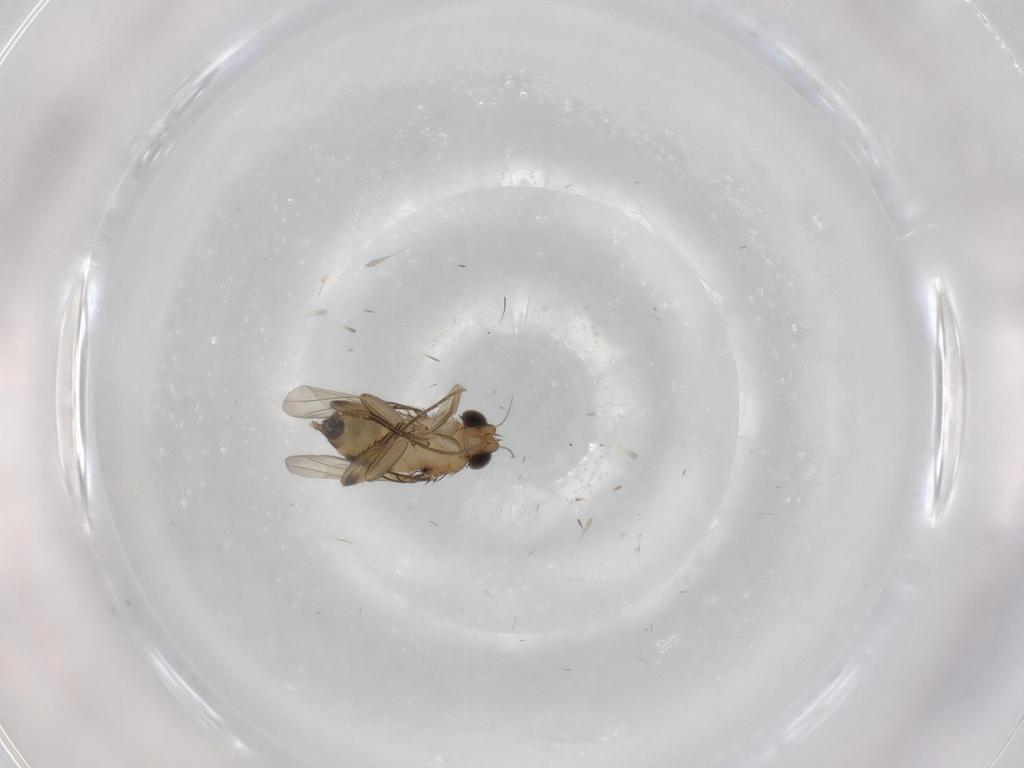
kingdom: Animalia
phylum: Arthropoda
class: Insecta
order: Diptera
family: Phoridae
